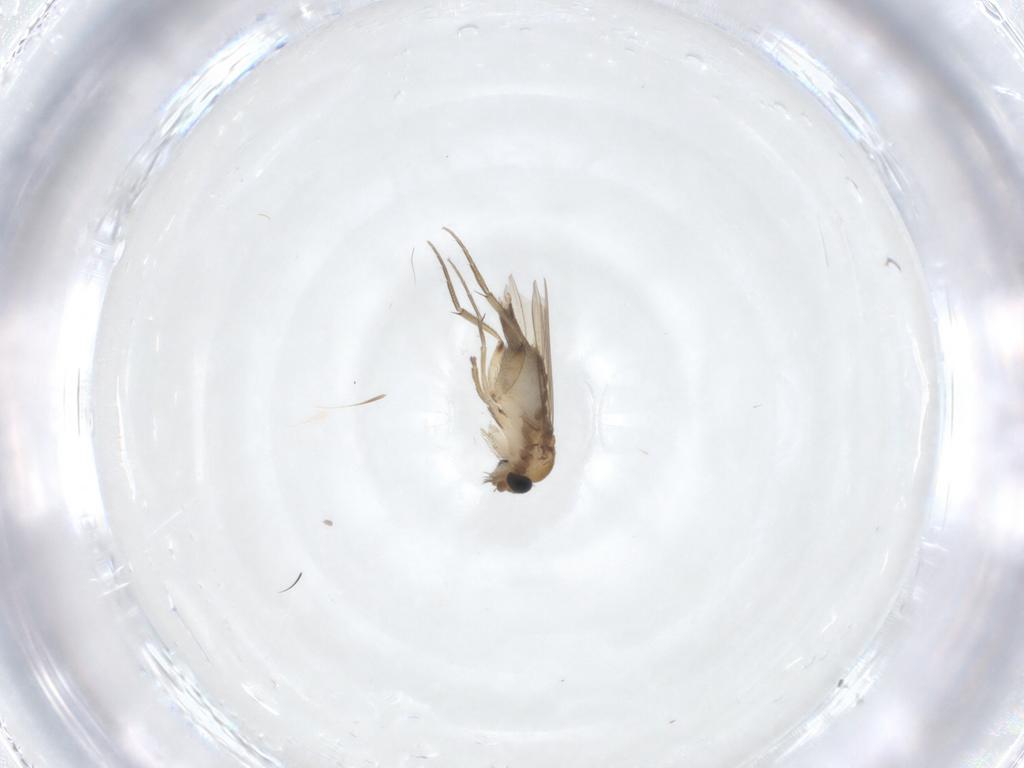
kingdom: Animalia
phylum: Arthropoda
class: Insecta
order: Diptera
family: Phoridae
